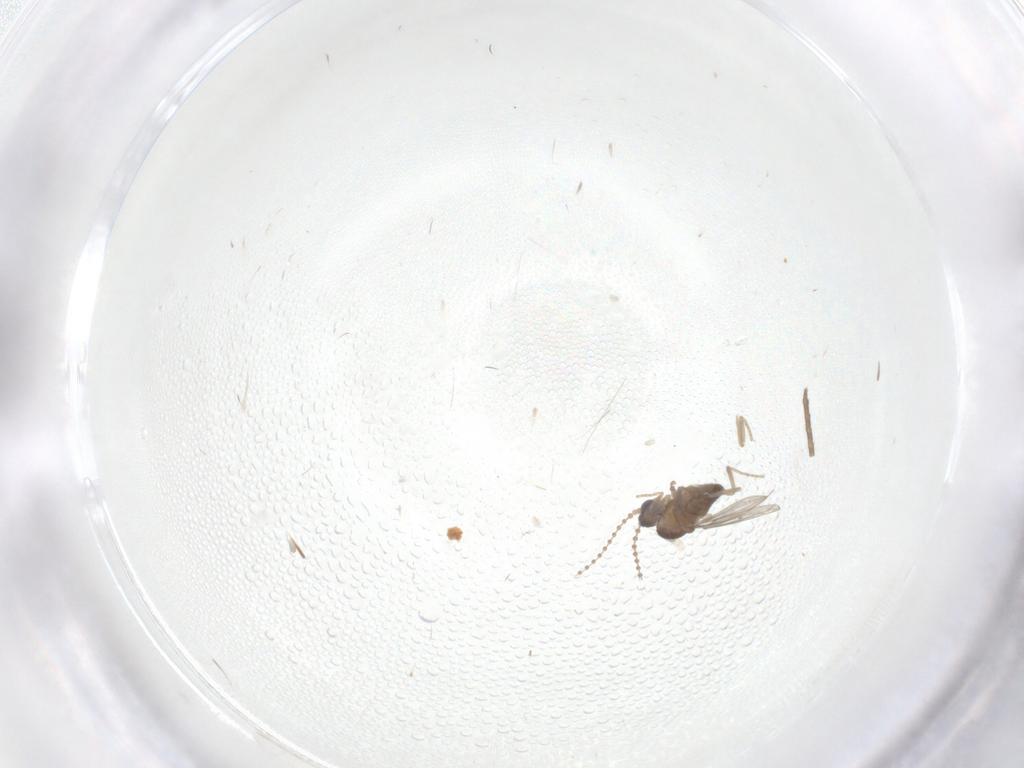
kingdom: Animalia
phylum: Arthropoda
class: Insecta
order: Diptera
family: Cecidomyiidae
